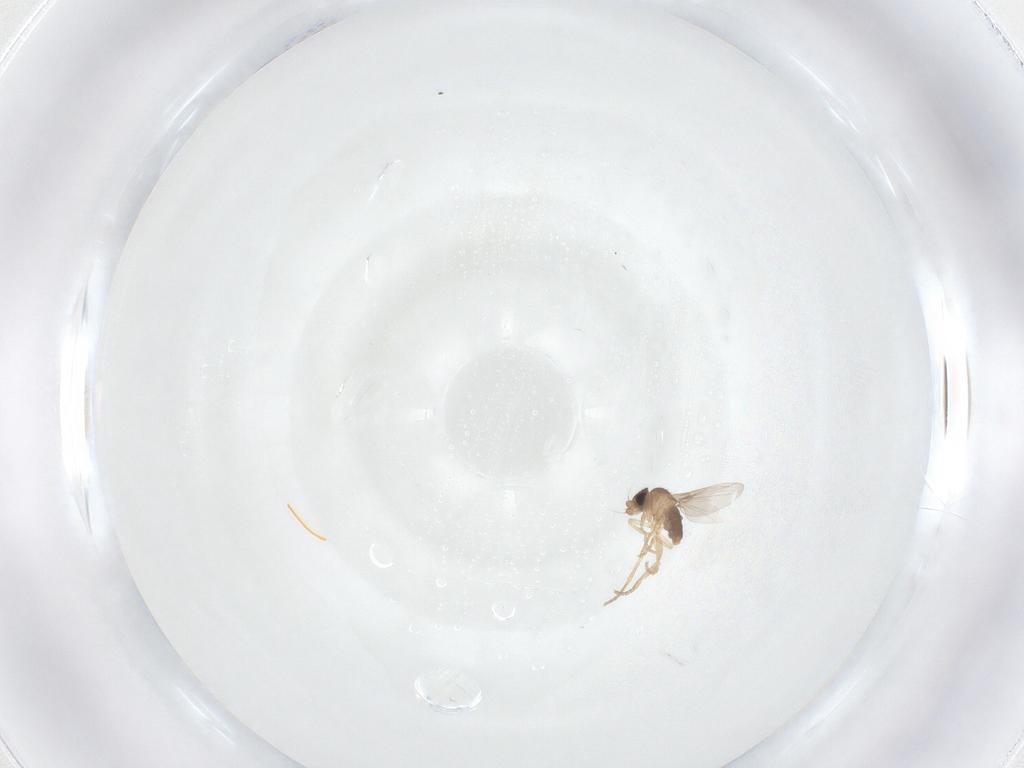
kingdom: Animalia
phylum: Arthropoda
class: Insecta
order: Diptera
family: Phoridae
